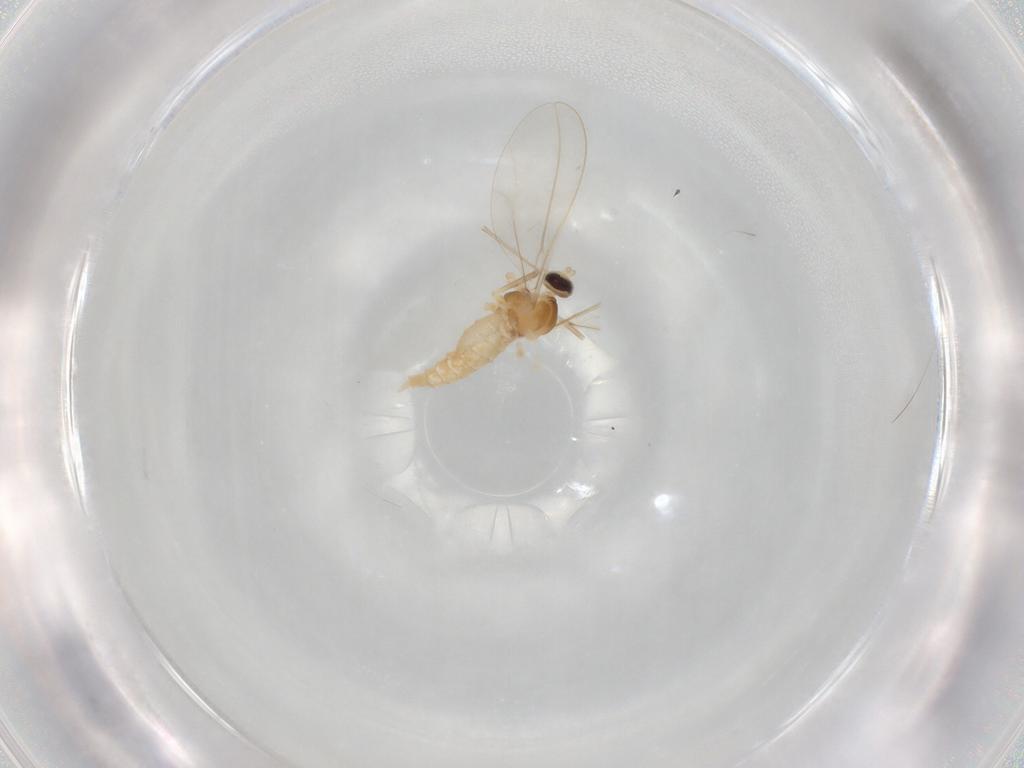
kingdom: Animalia
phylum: Arthropoda
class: Insecta
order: Diptera
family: Cecidomyiidae
